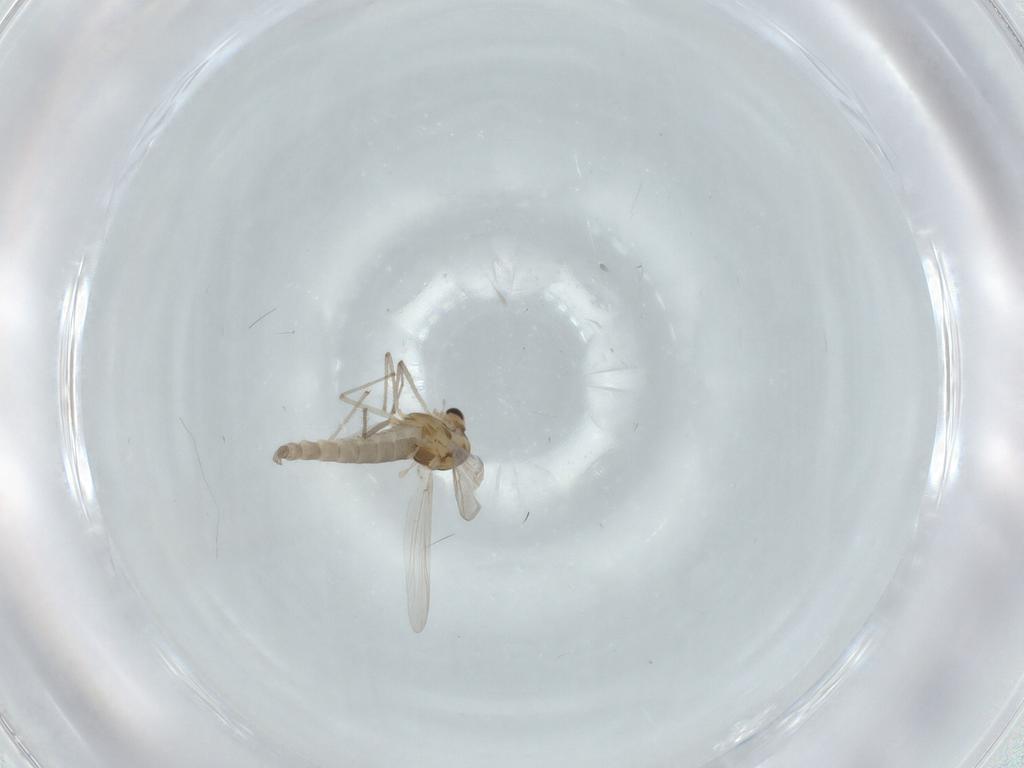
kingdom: Animalia
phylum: Arthropoda
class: Insecta
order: Diptera
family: Chironomidae
